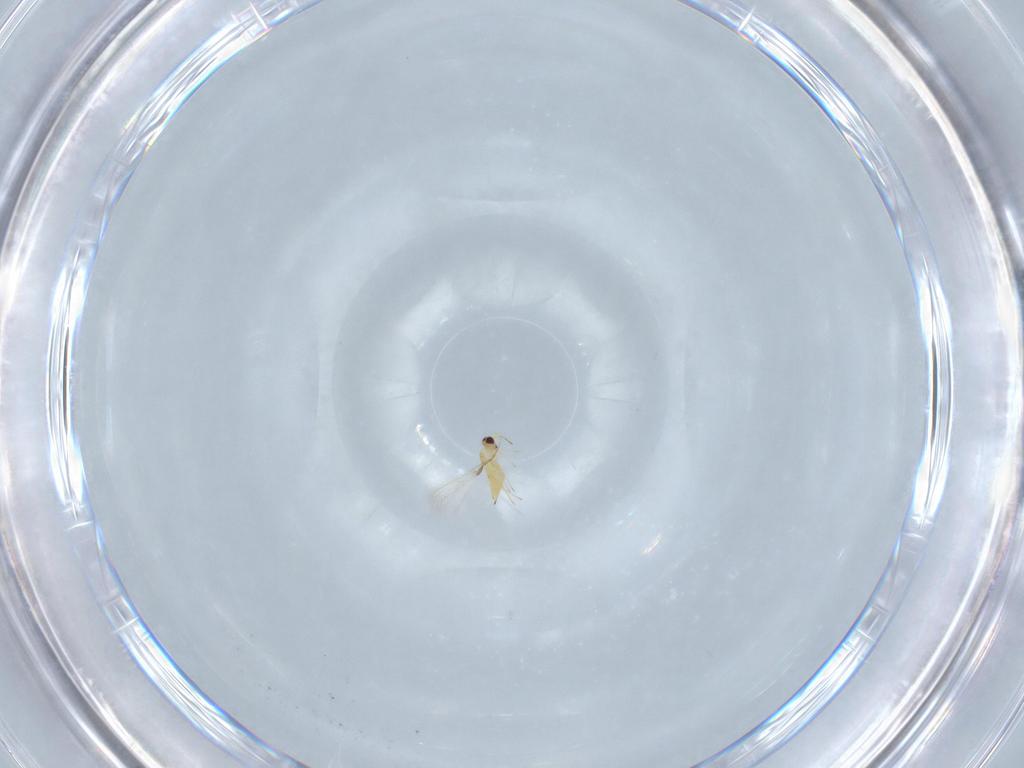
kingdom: Animalia
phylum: Arthropoda
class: Insecta
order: Hymenoptera
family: Mymaridae
